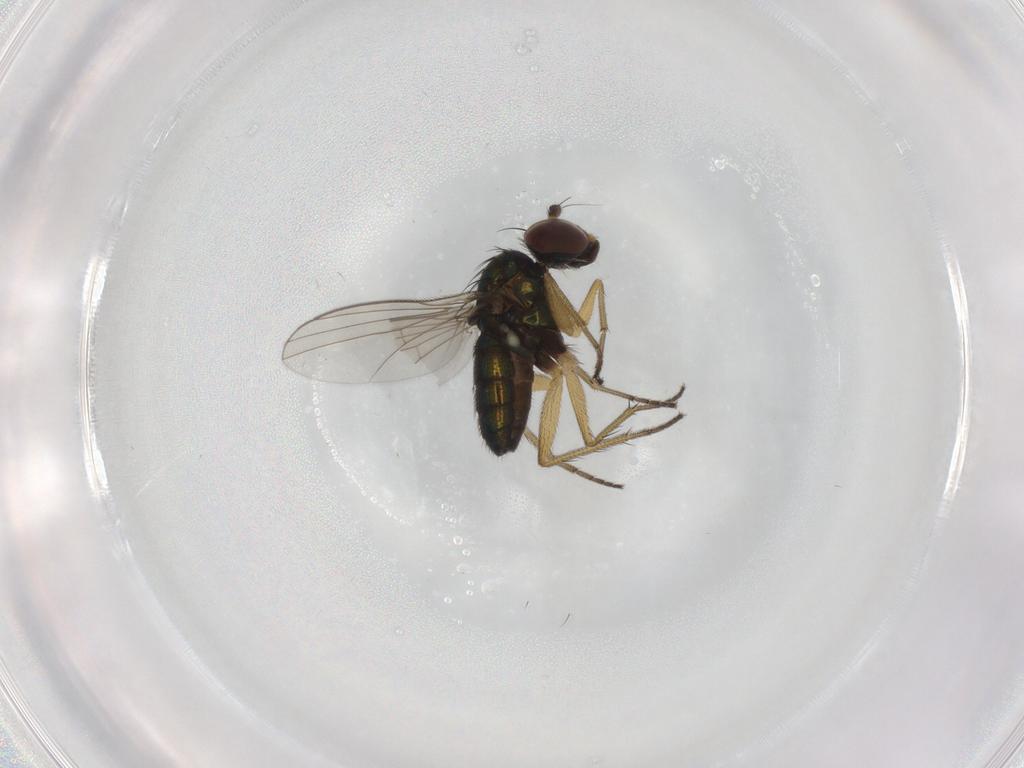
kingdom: Animalia
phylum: Arthropoda
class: Insecta
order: Diptera
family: Dolichopodidae
